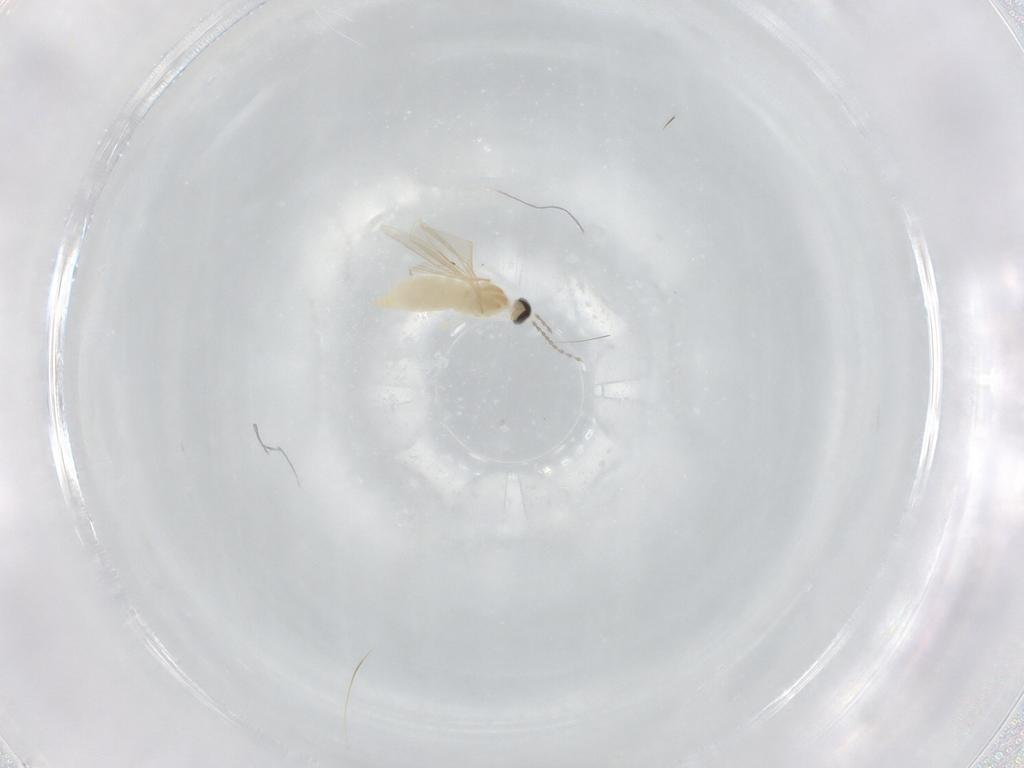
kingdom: Animalia
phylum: Arthropoda
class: Insecta
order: Diptera
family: Cecidomyiidae
